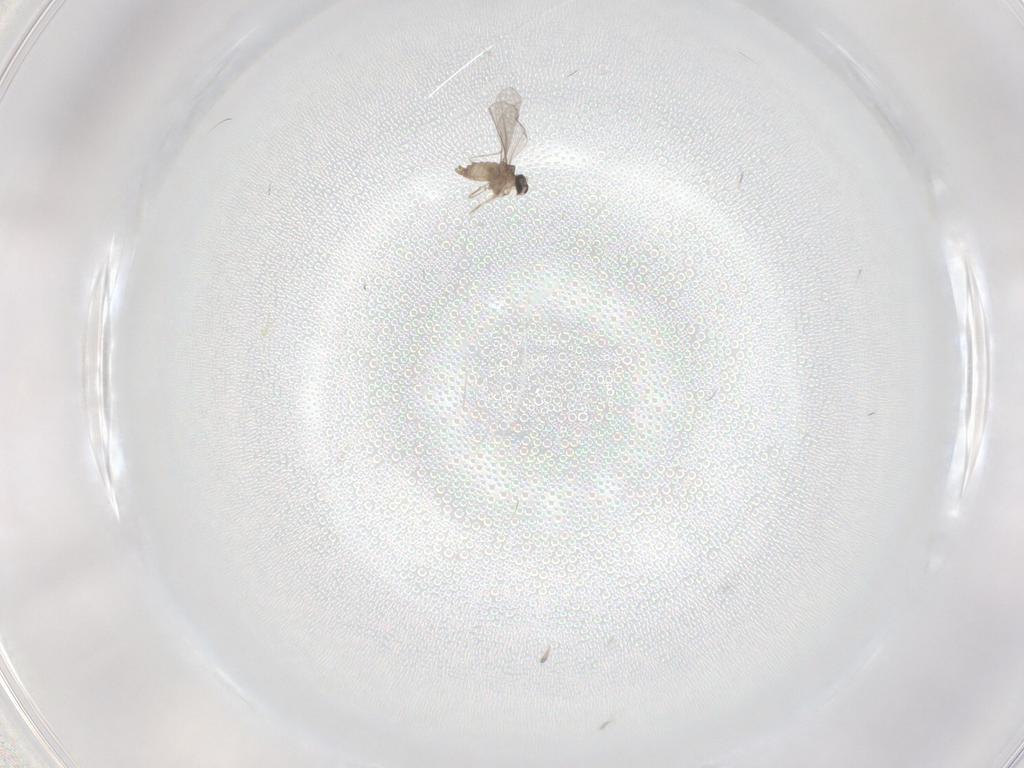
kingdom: Animalia
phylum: Arthropoda
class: Insecta
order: Diptera
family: Cecidomyiidae
